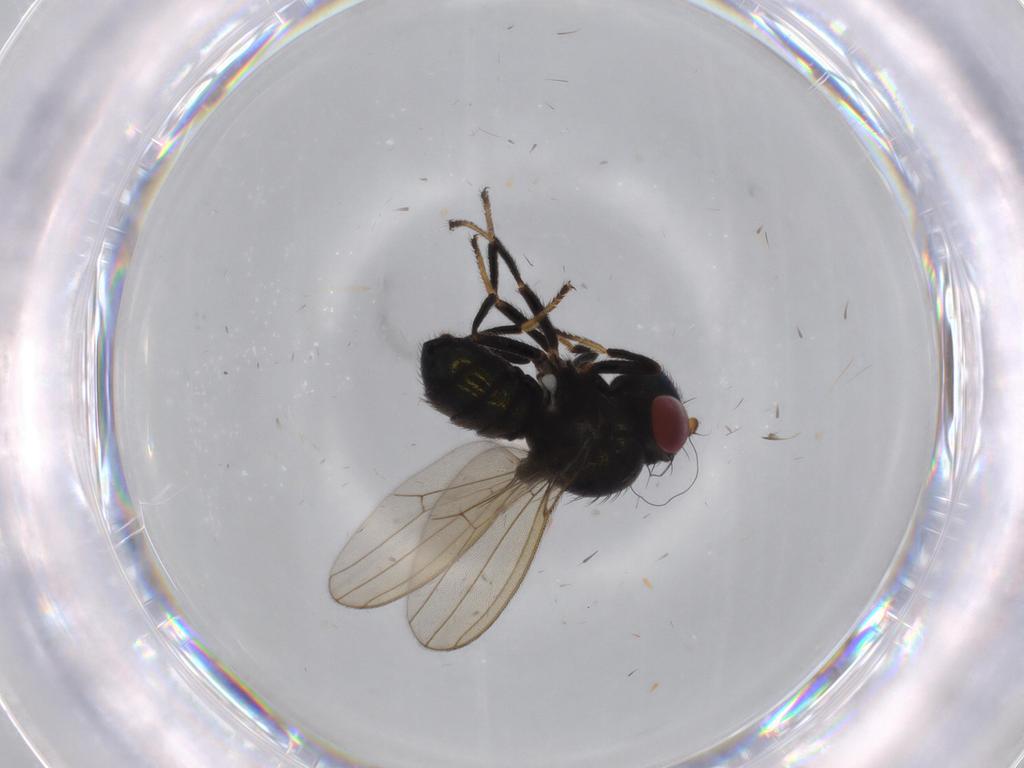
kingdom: Animalia
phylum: Arthropoda
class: Insecta
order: Diptera
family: Ephydridae
